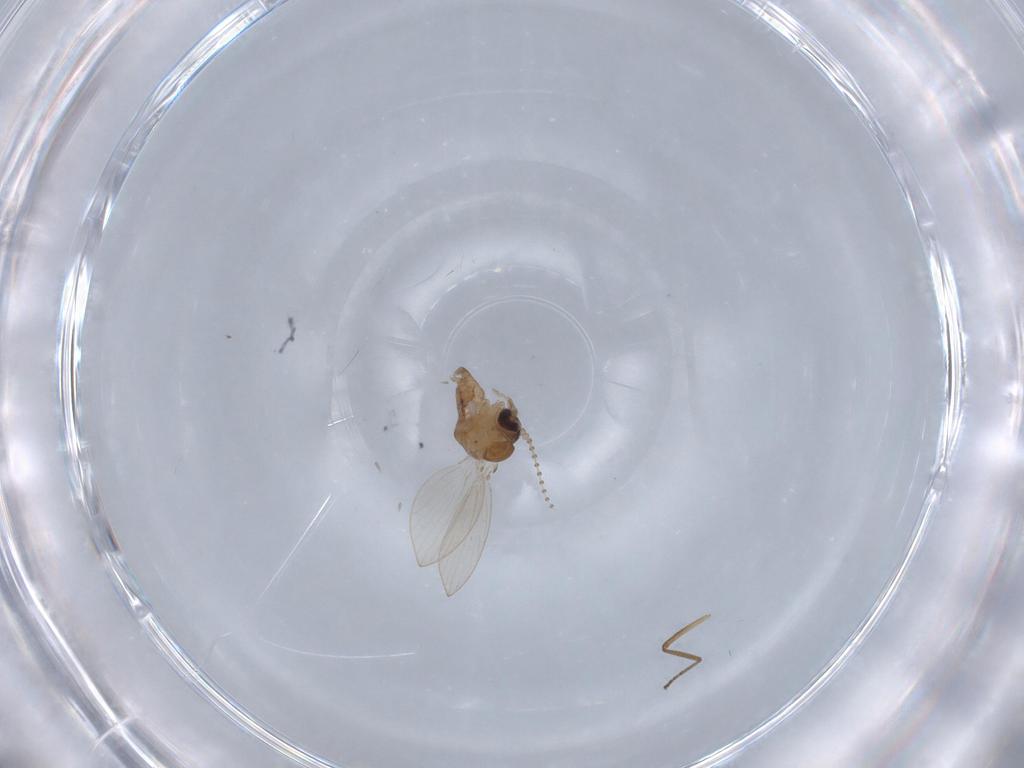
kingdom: Animalia
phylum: Arthropoda
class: Insecta
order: Diptera
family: Psychodidae
